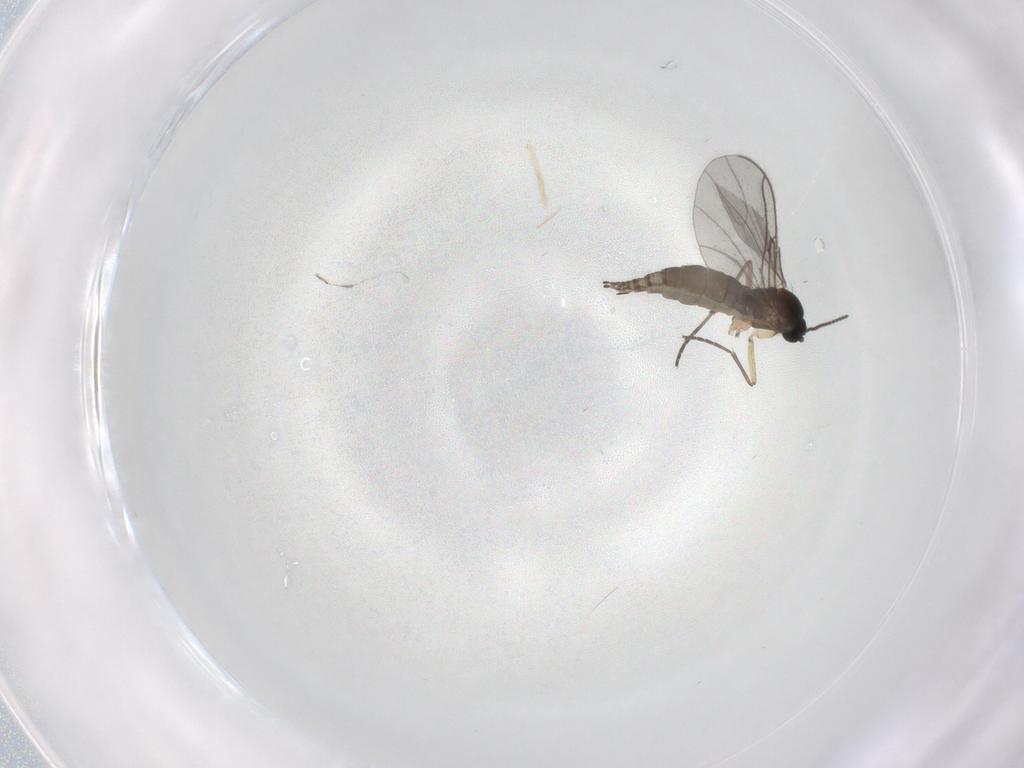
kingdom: Animalia
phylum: Arthropoda
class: Insecta
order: Diptera
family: Sciaridae
